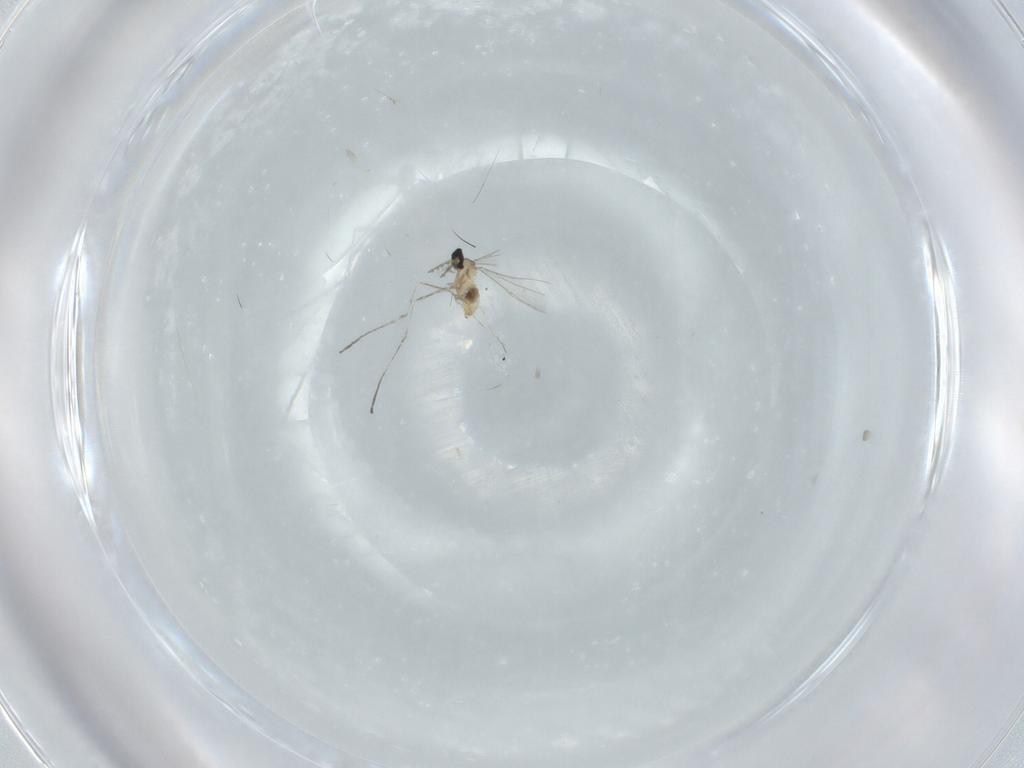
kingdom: Animalia
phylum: Arthropoda
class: Insecta
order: Diptera
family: Cecidomyiidae
